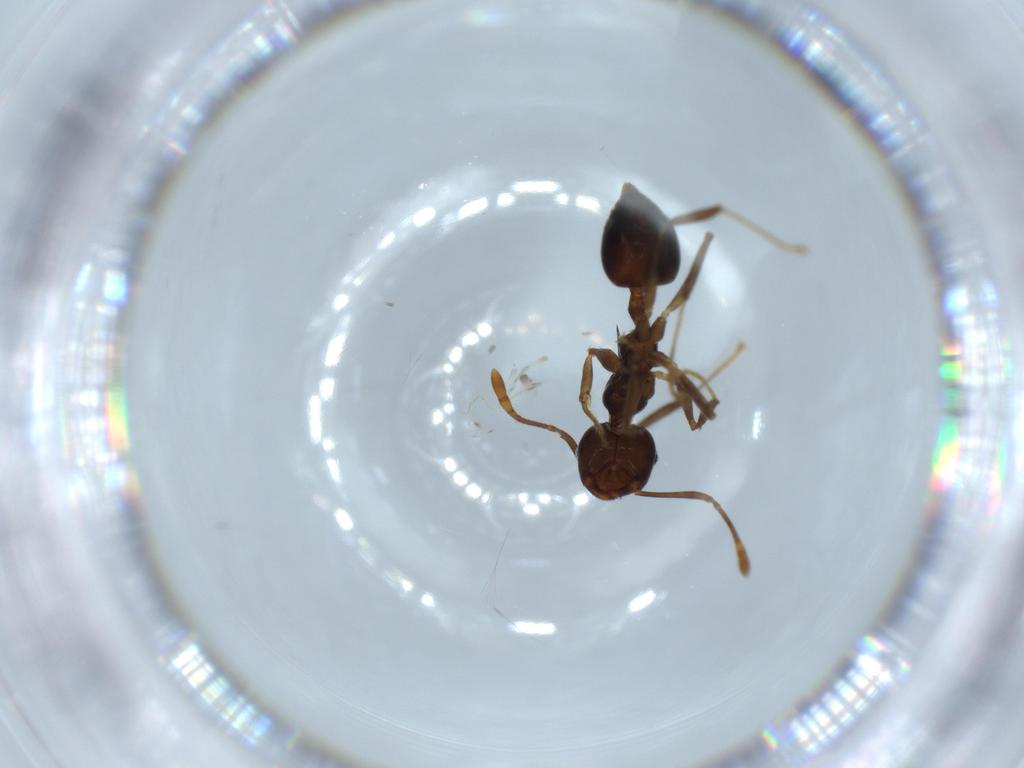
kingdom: Animalia
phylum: Arthropoda
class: Insecta
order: Hymenoptera
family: Formicidae
